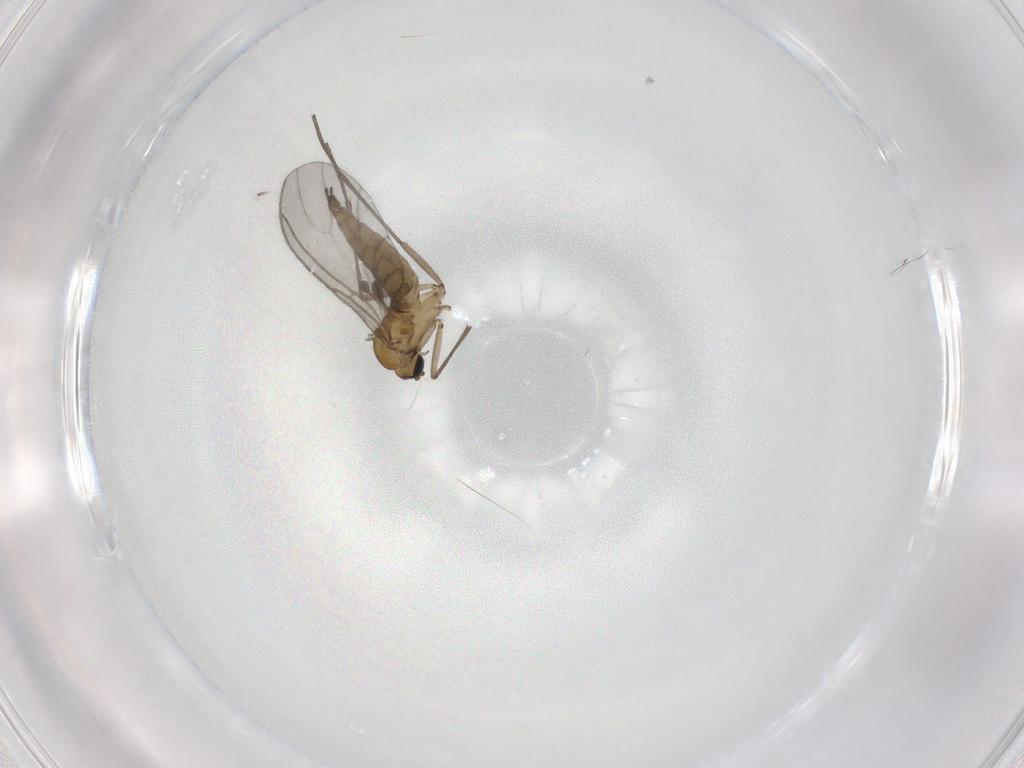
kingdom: Animalia
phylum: Arthropoda
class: Insecta
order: Diptera
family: Sciaridae
